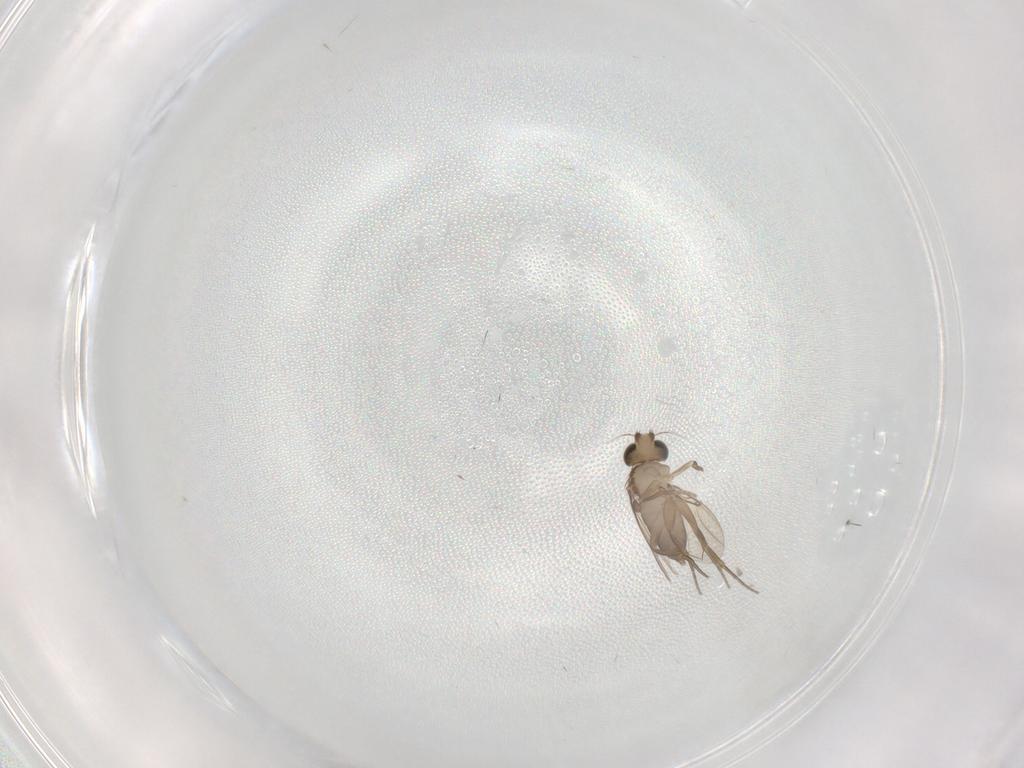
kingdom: Animalia
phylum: Arthropoda
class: Insecta
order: Diptera
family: Phoridae
